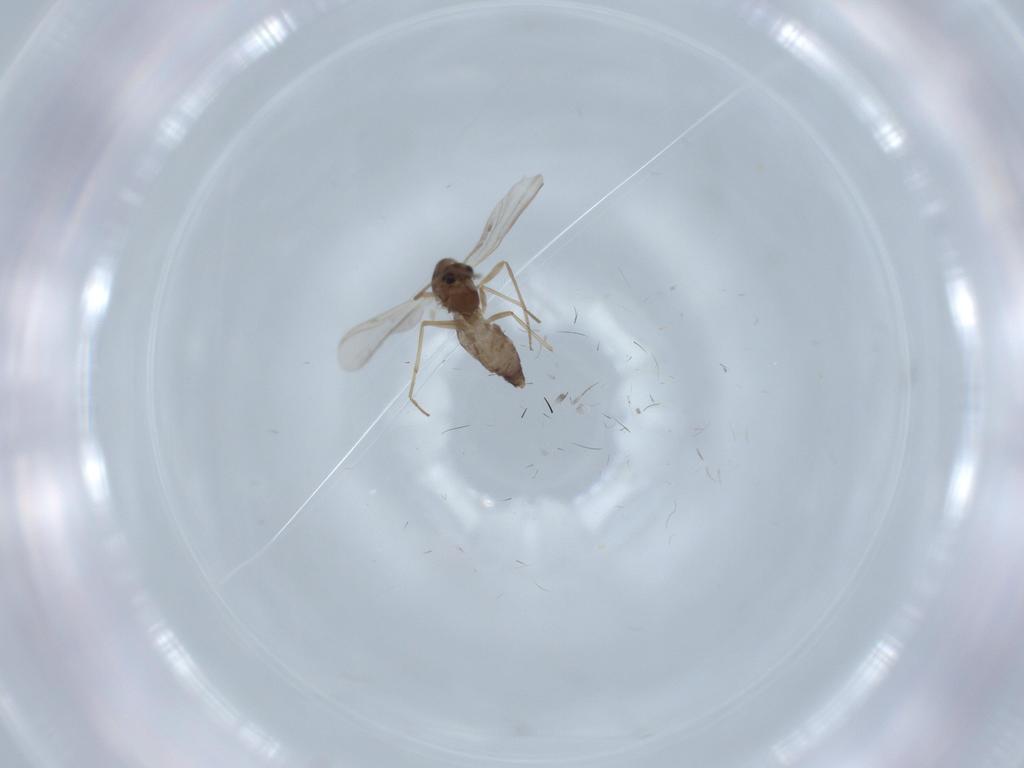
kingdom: Animalia
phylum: Arthropoda
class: Insecta
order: Diptera
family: Chironomidae
